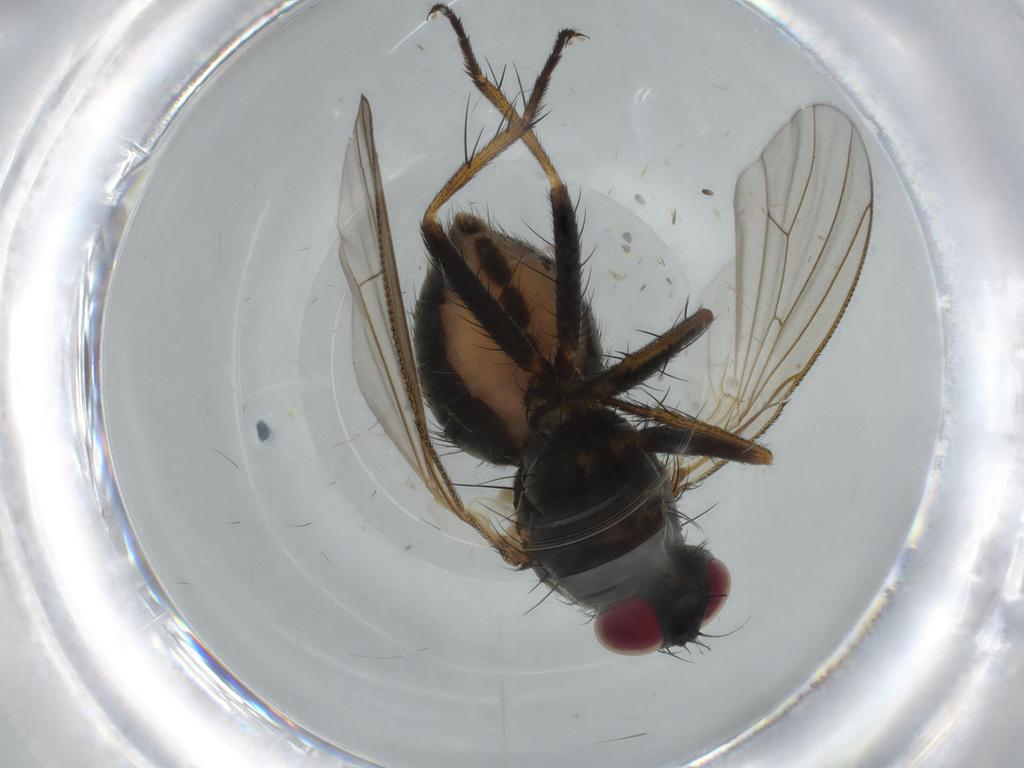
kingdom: Animalia
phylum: Arthropoda
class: Insecta
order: Diptera
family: Muscidae
